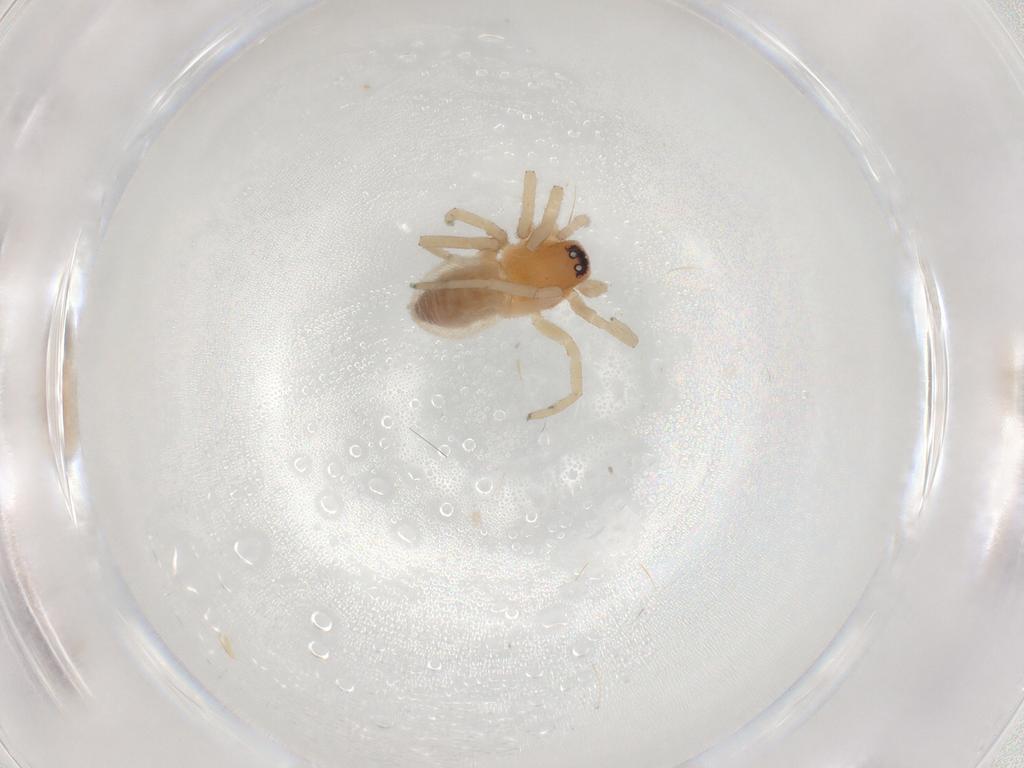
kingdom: Animalia
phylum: Arthropoda
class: Arachnida
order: Araneae
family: Trachelidae
